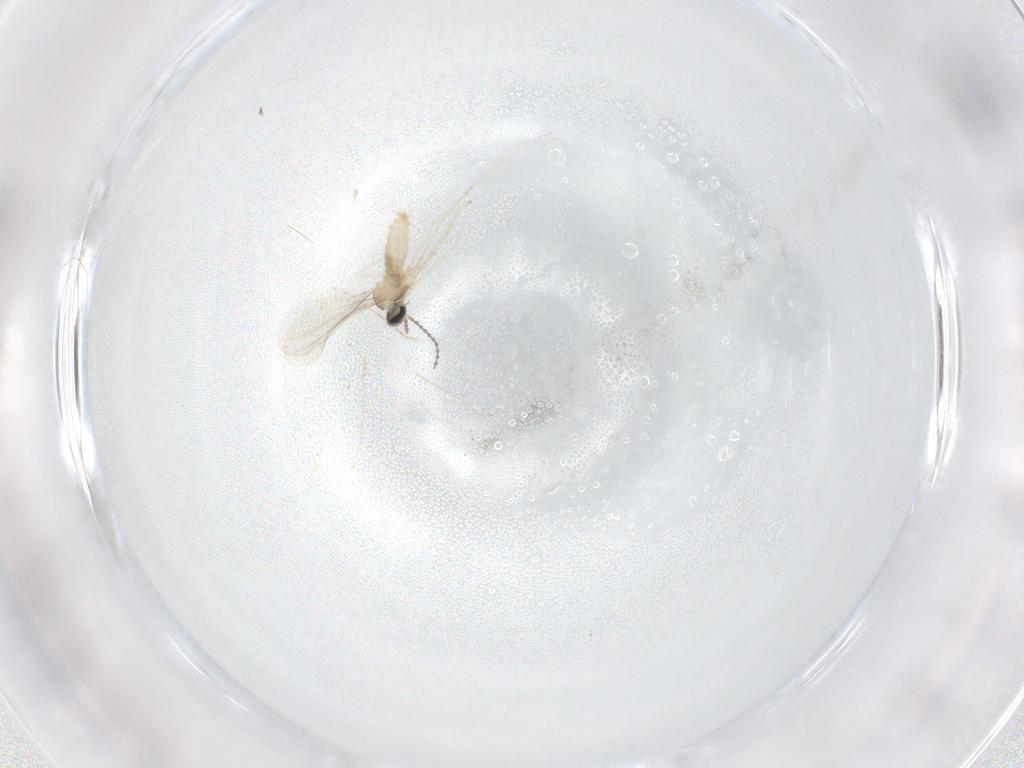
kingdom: Animalia
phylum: Arthropoda
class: Insecta
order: Diptera
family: Cecidomyiidae
